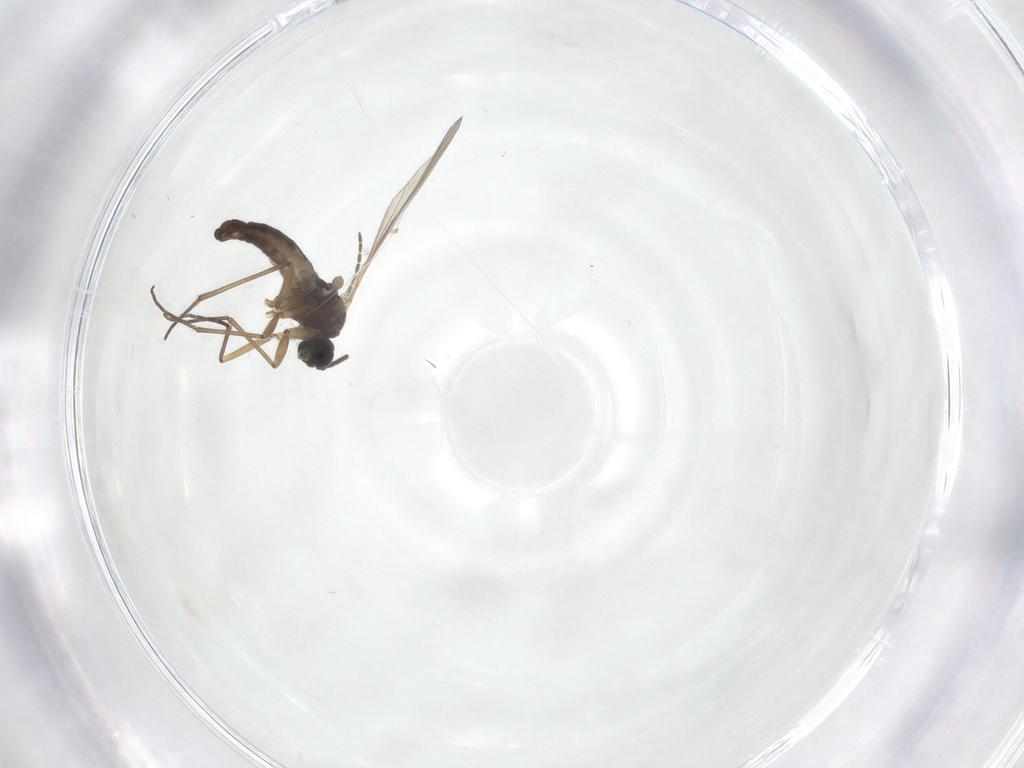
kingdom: Animalia
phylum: Arthropoda
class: Insecta
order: Diptera
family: Sciaridae
